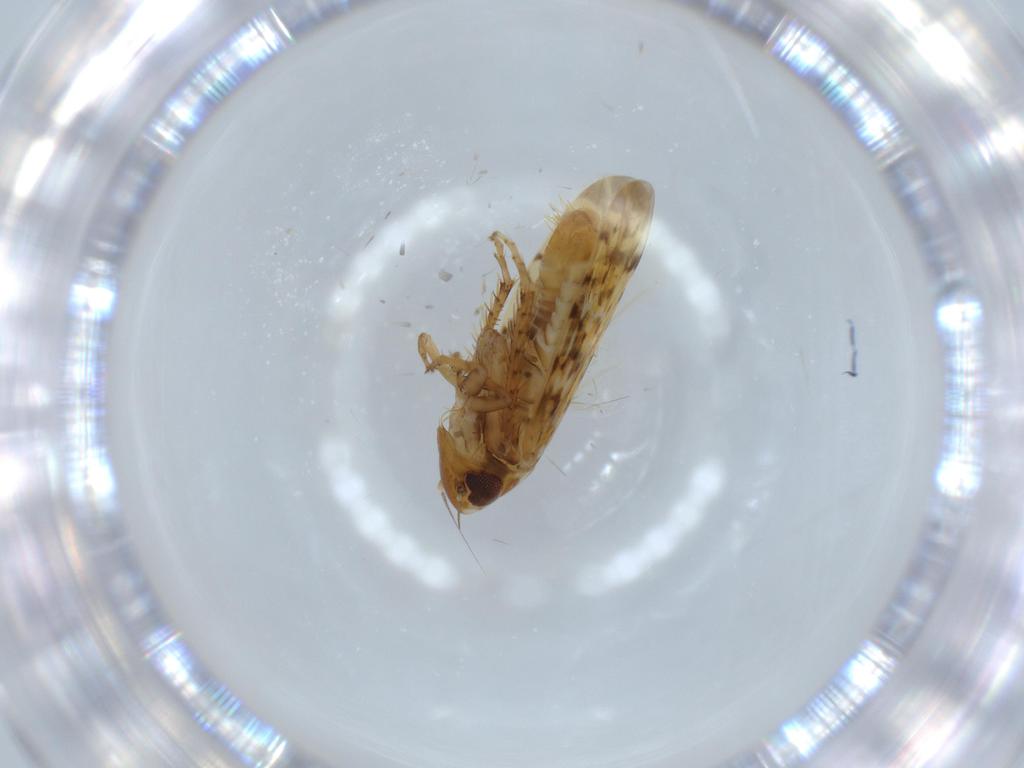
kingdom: Animalia
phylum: Arthropoda
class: Insecta
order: Hemiptera
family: Cicadellidae
